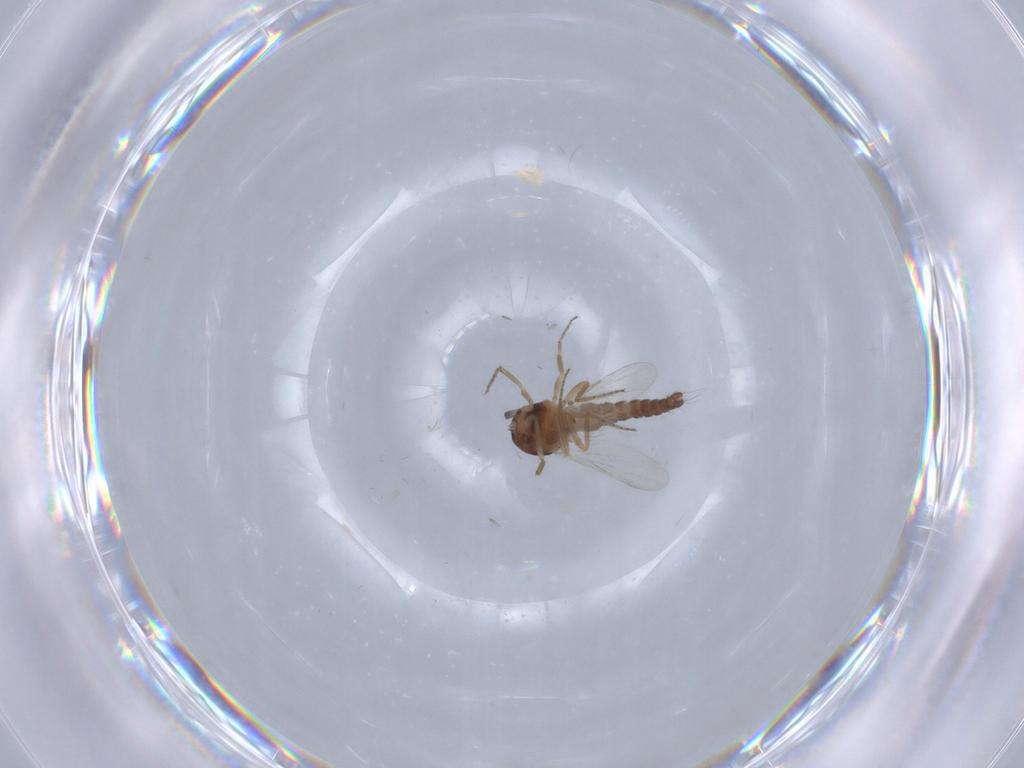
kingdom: Animalia
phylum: Arthropoda
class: Insecta
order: Diptera
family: Ceratopogonidae
